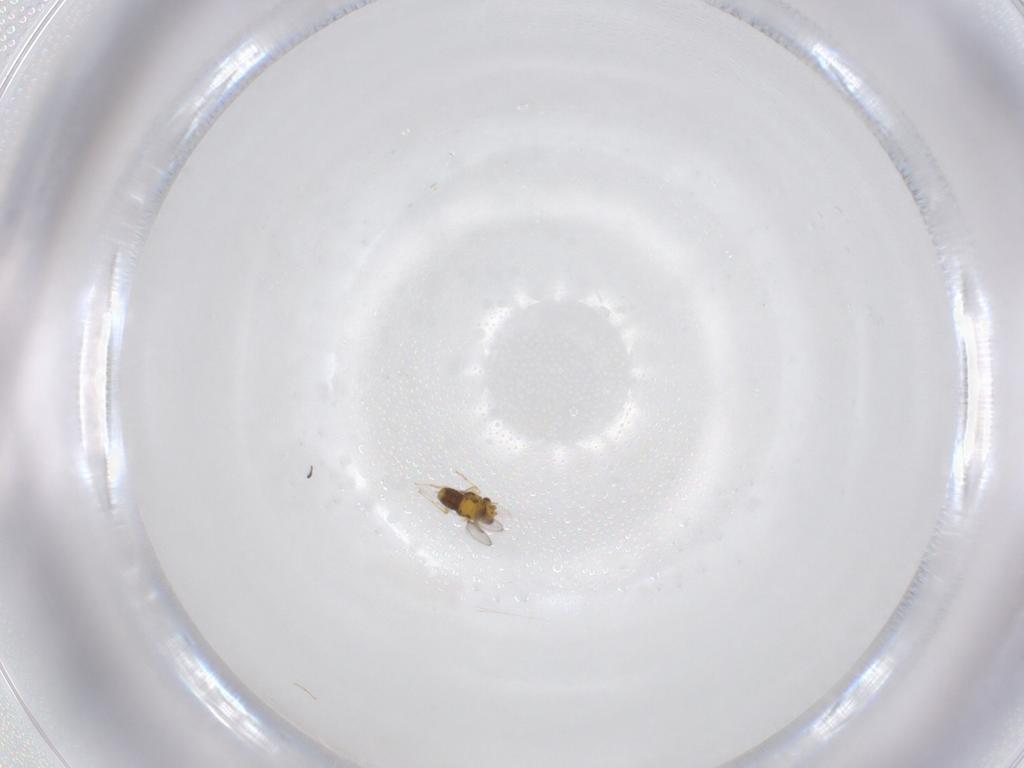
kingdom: Animalia
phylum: Arthropoda
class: Insecta
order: Hymenoptera
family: Aphelinidae
